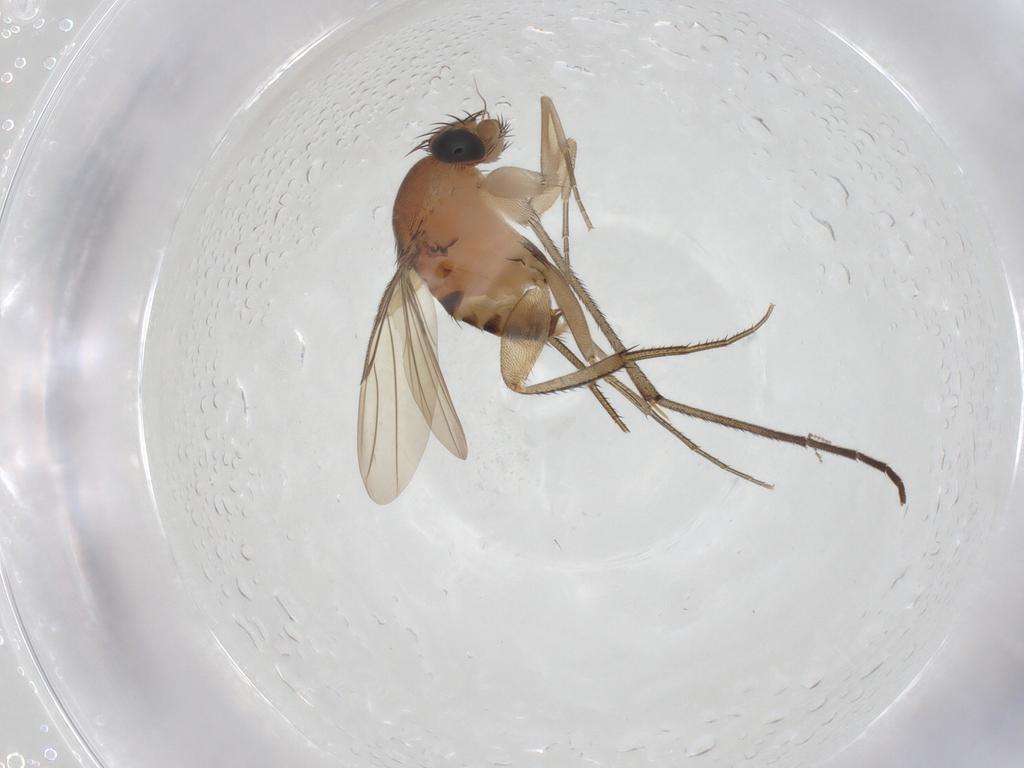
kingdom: Animalia
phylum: Arthropoda
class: Insecta
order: Diptera
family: Phoridae
